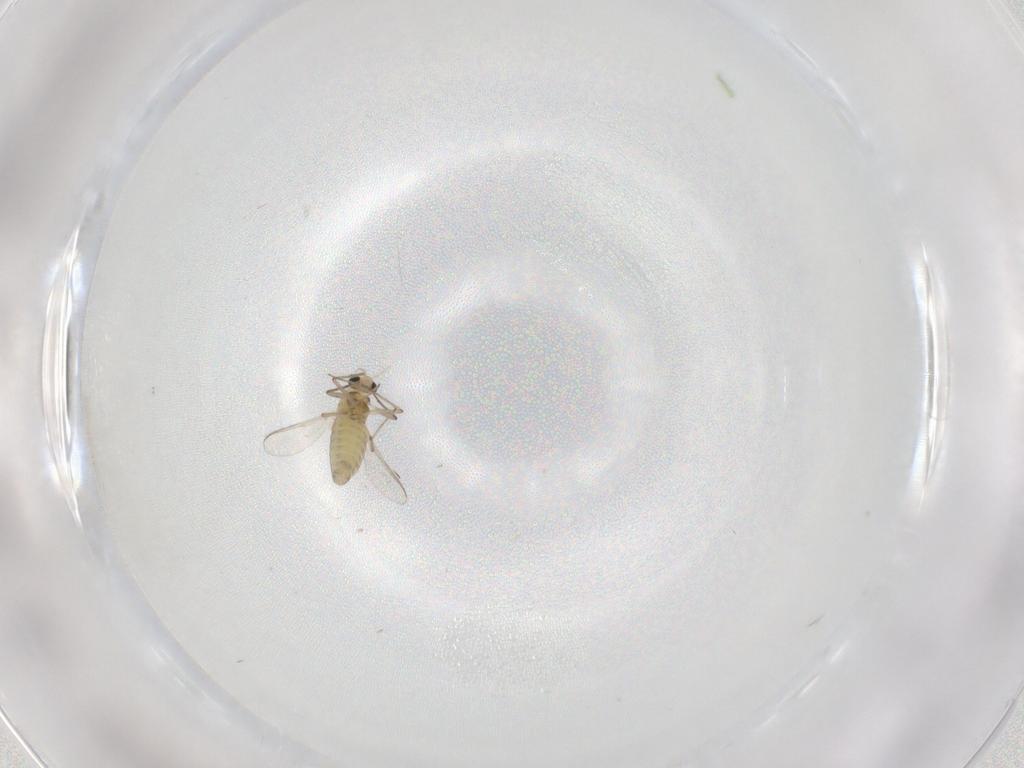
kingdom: Animalia
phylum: Arthropoda
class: Insecta
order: Diptera
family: Chironomidae
